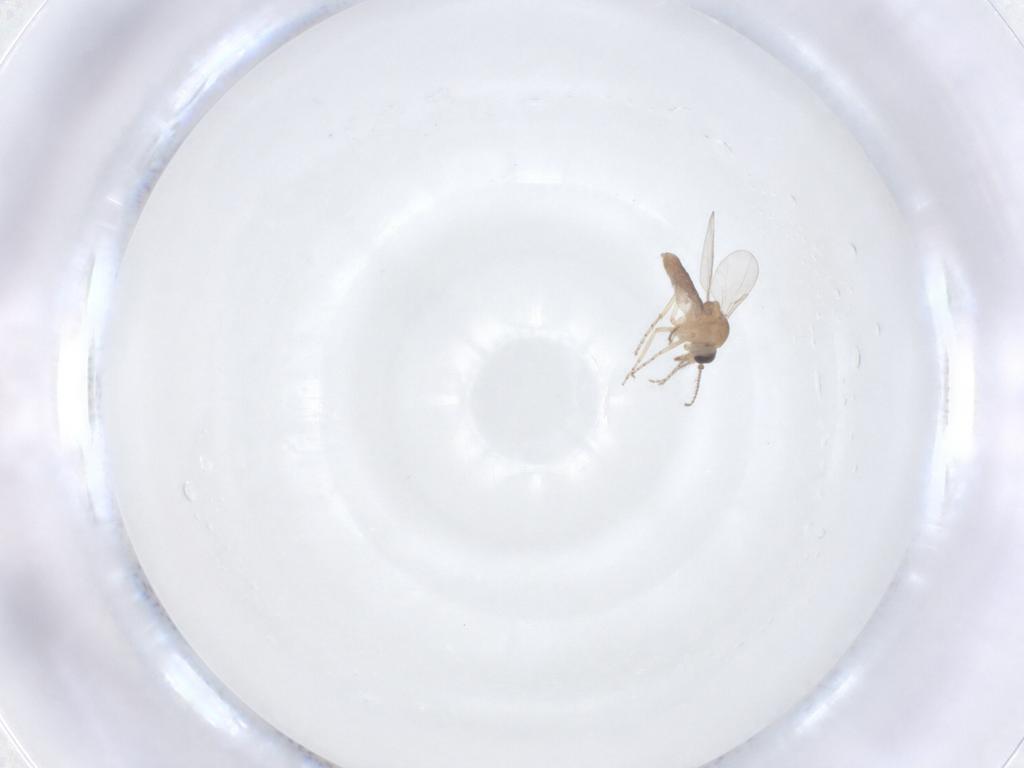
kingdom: Animalia
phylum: Arthropoda
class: Insecta
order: Diptera
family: Ceratopogonidae
